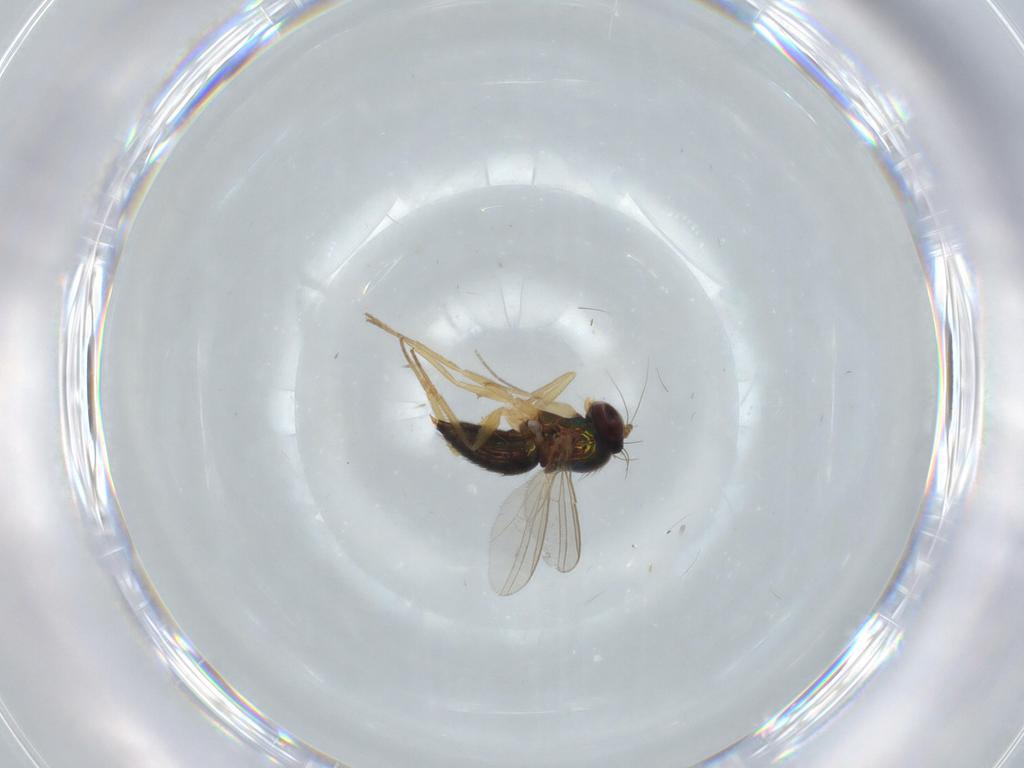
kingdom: Animalia
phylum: Arthropoda
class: Insecta
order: Diptera
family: Dolichopodidae
